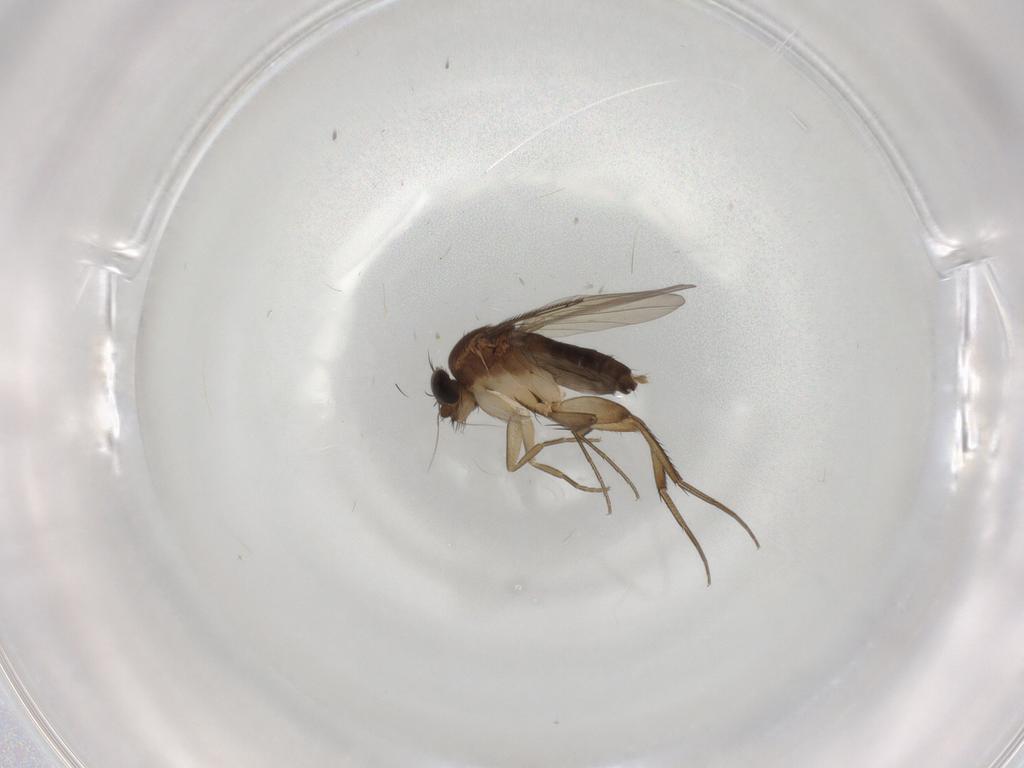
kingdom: Animalia
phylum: Arthropoda
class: Insecta
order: Diptera
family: Phoridae
